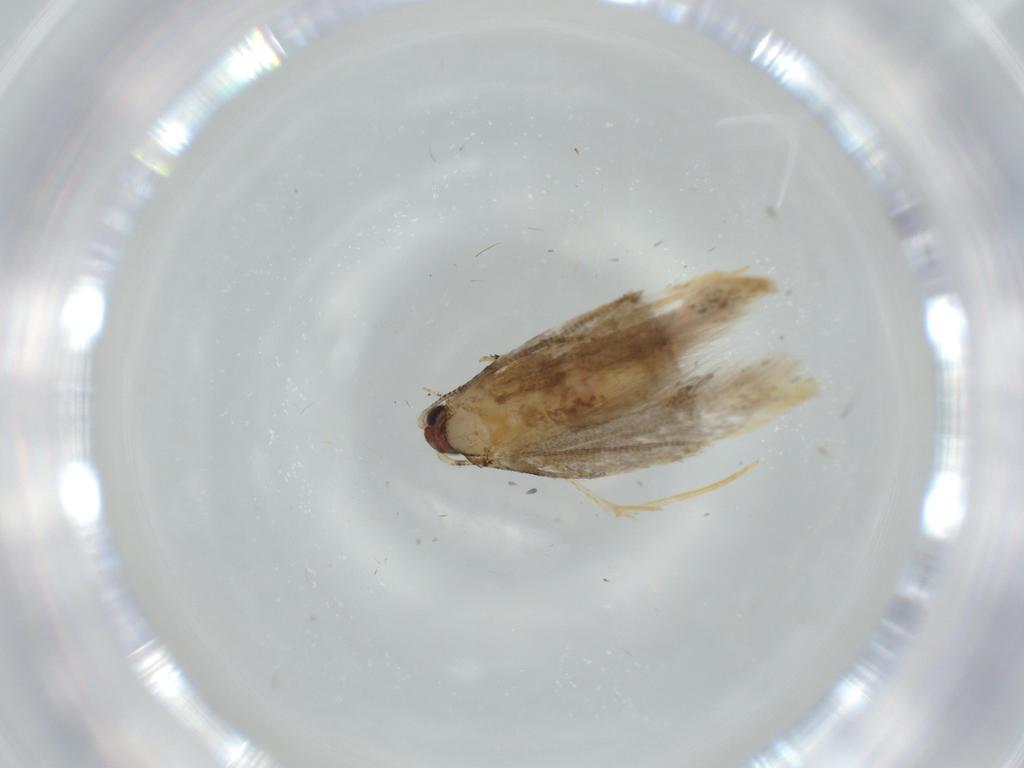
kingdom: Animalia
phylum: Arthropoda
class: Insecta
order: Lepidoptera
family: Tineidae
